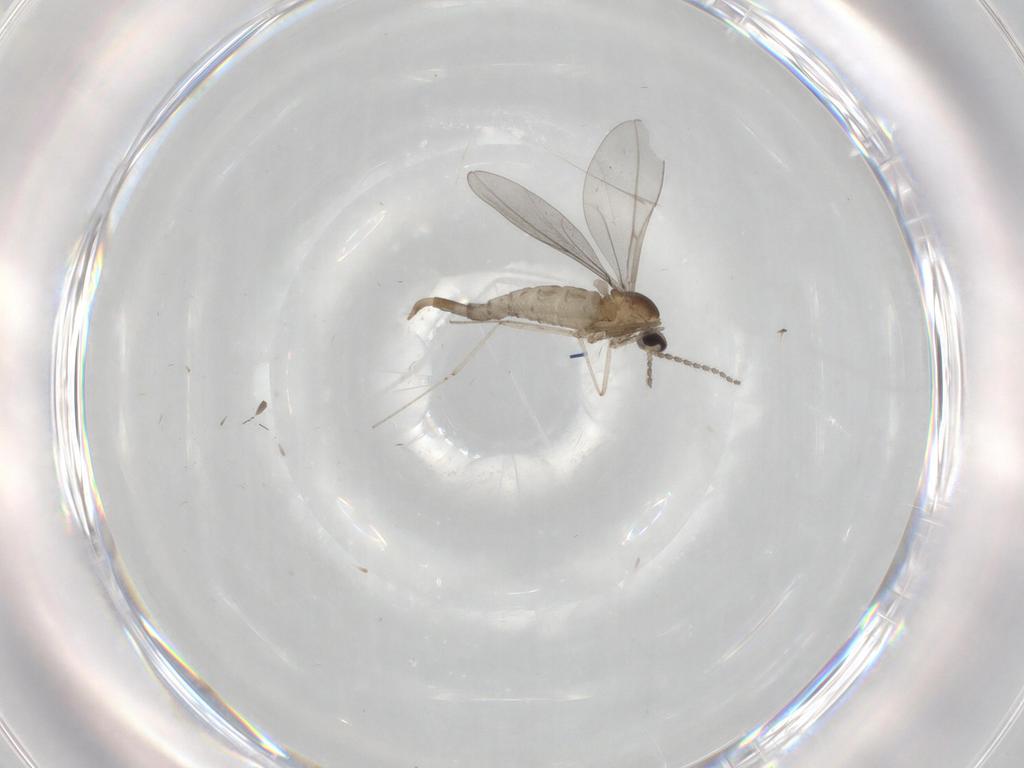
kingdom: Animalia
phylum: Arthropoda
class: Insecta
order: Diptera
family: Cecidomyiidae
